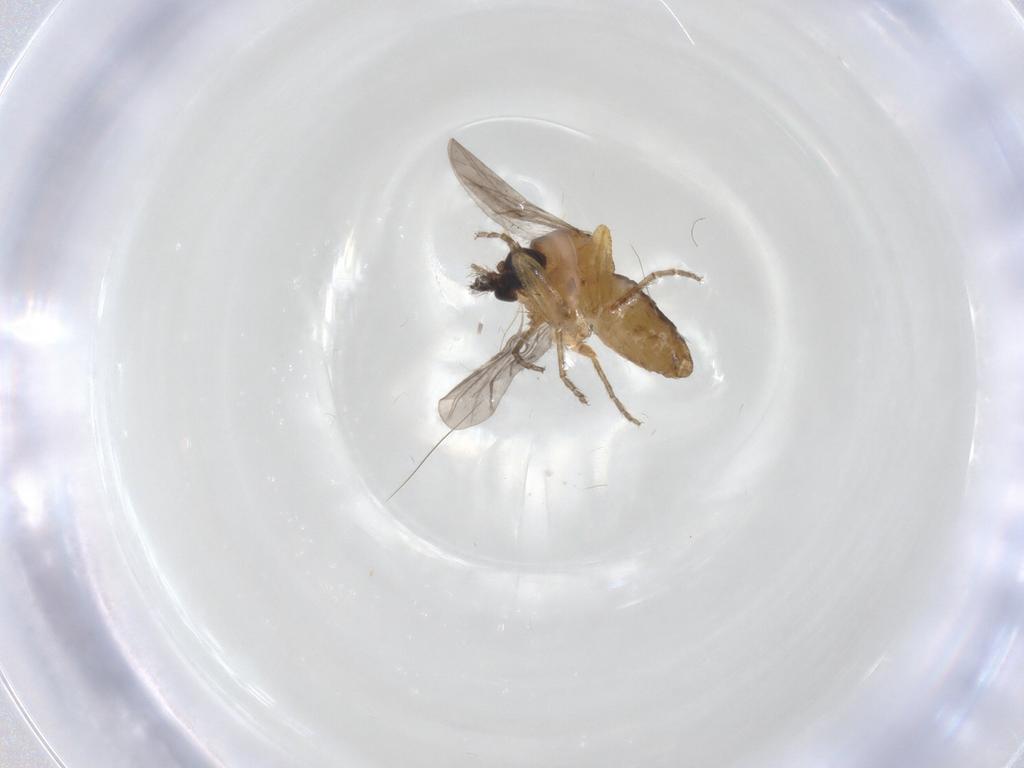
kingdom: Animalia
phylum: Arthropoda
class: Insecta
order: Diptera
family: Ceratopogonidae
